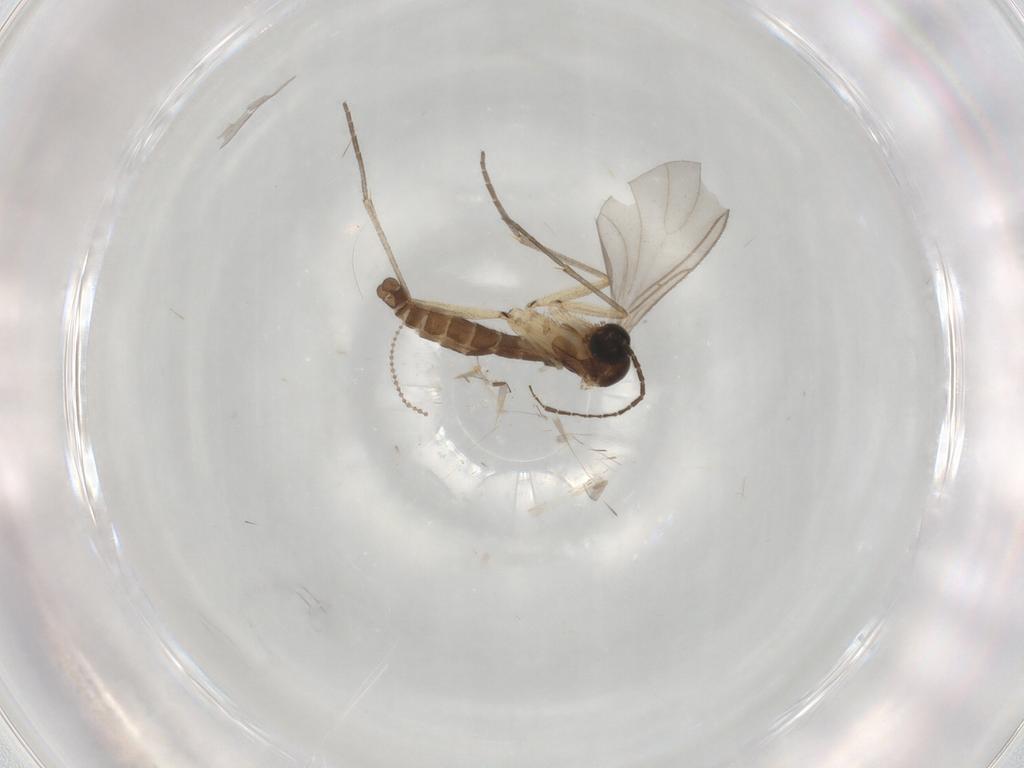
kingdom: Animalia
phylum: Arthropoda
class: Insecta
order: Diptera
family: Sciaridae
